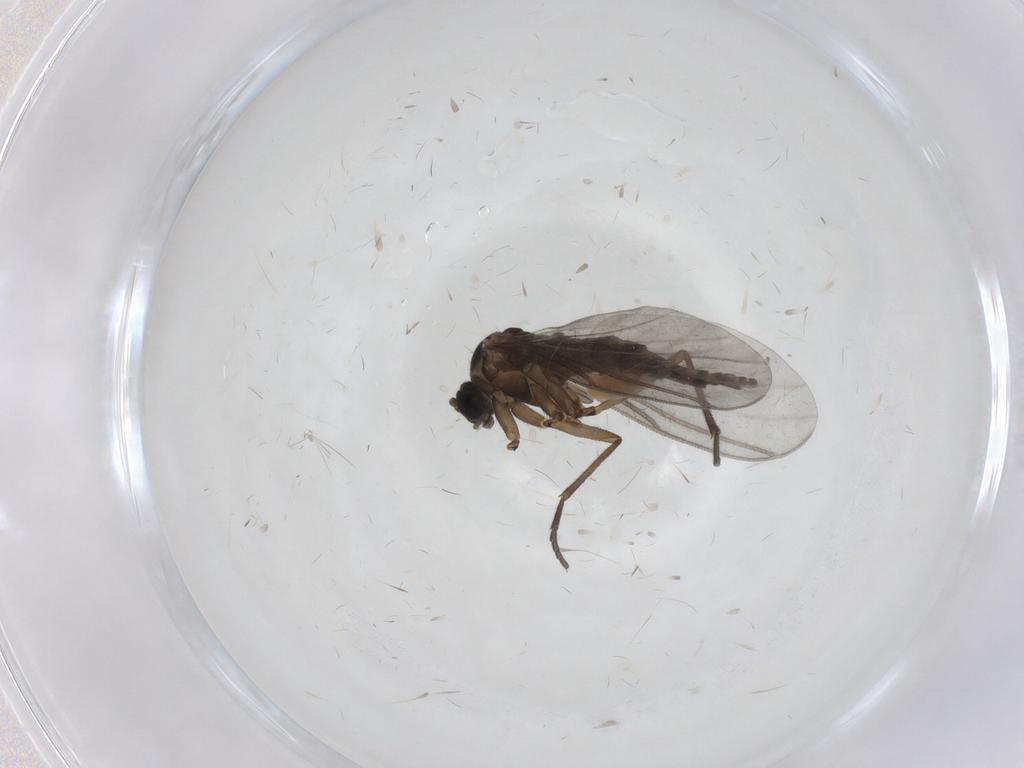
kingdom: Animalia
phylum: Arthropoda
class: Insecta
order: Diptera
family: Sciaridae
